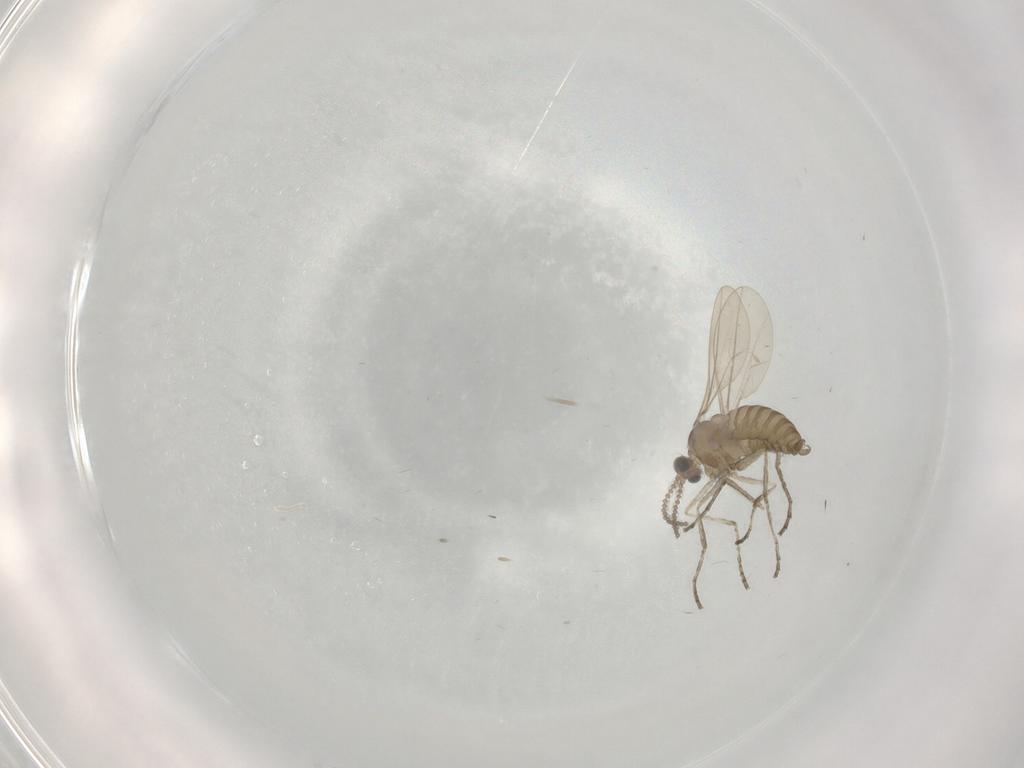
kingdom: Animalia
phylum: Arthropoda
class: Insecta
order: Diptera
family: Cecidomyiidae
